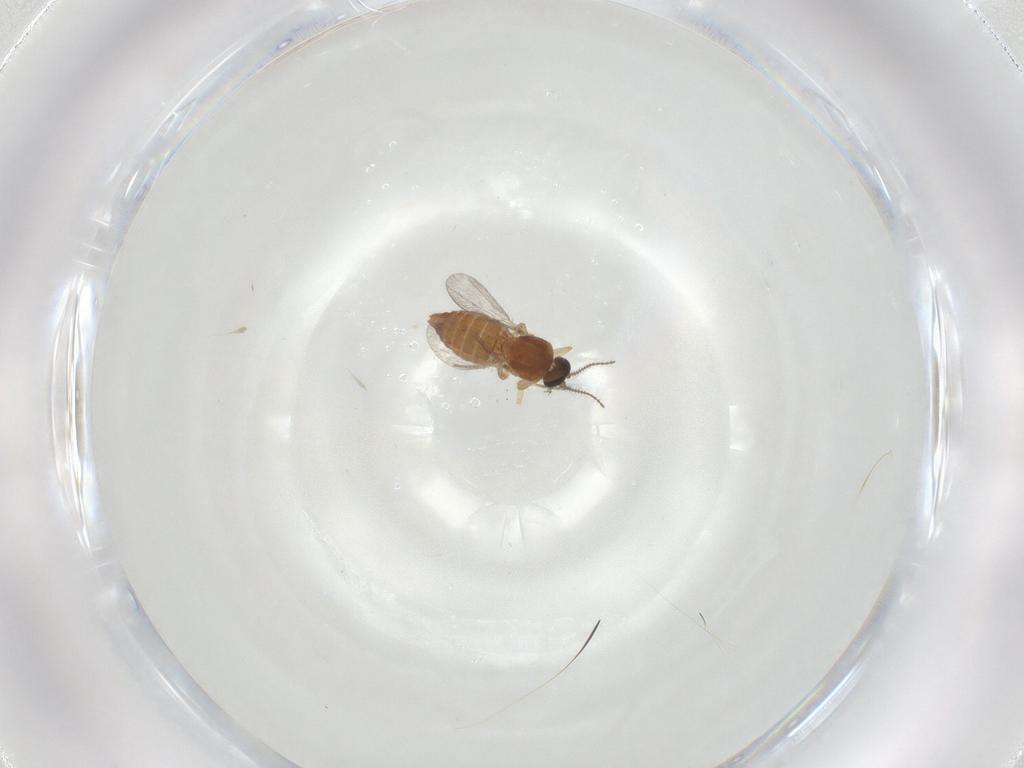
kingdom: Animalia
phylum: Arthropoda
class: Insecta
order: Diptera
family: Ceratopogonidae
